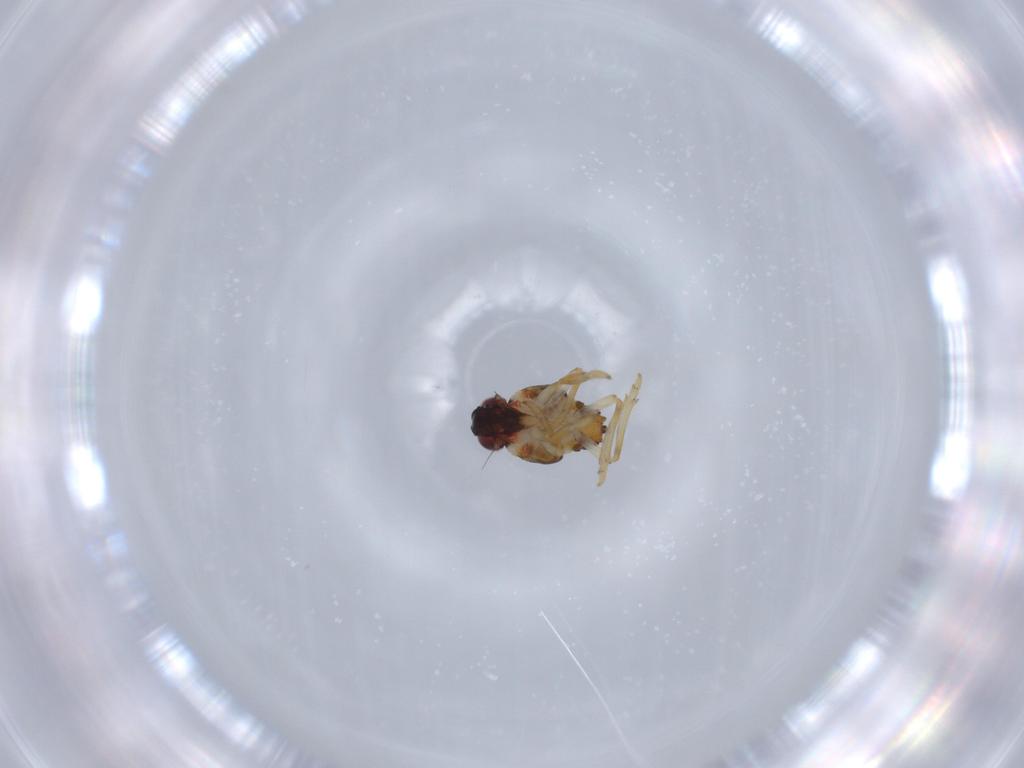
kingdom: Animalia
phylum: Arthropoda
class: Insecta
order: Hemiptera
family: Issidae
